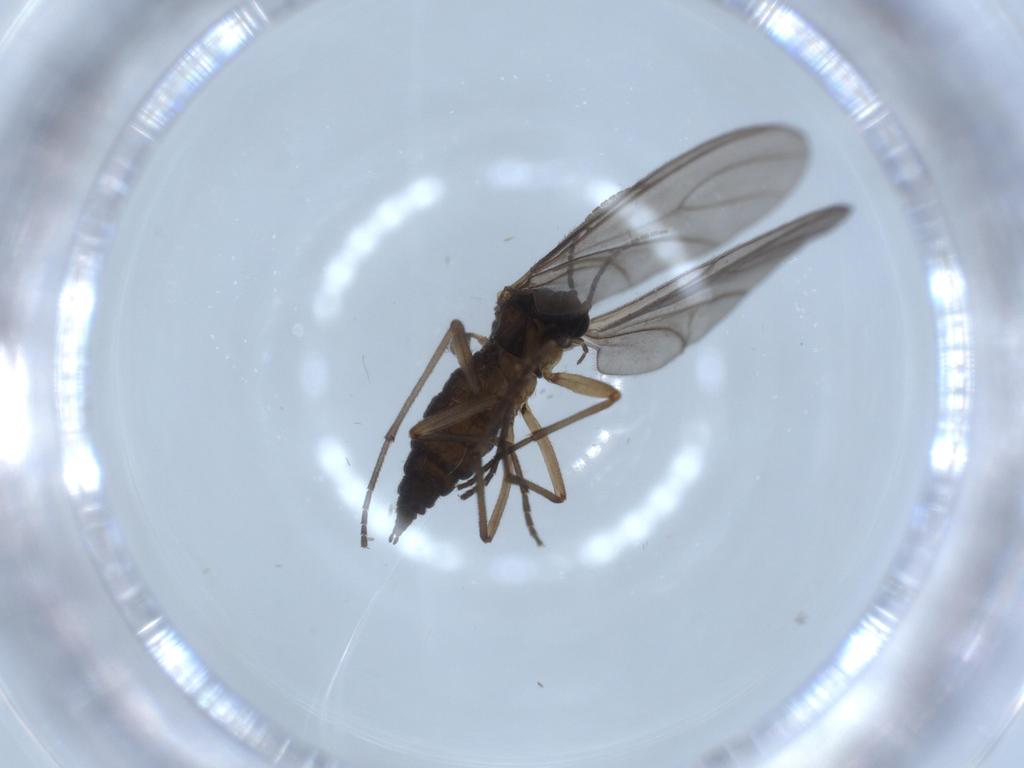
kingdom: Animalia
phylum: Arthropoda
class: Insecta
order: Diptera
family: Sciaridae
